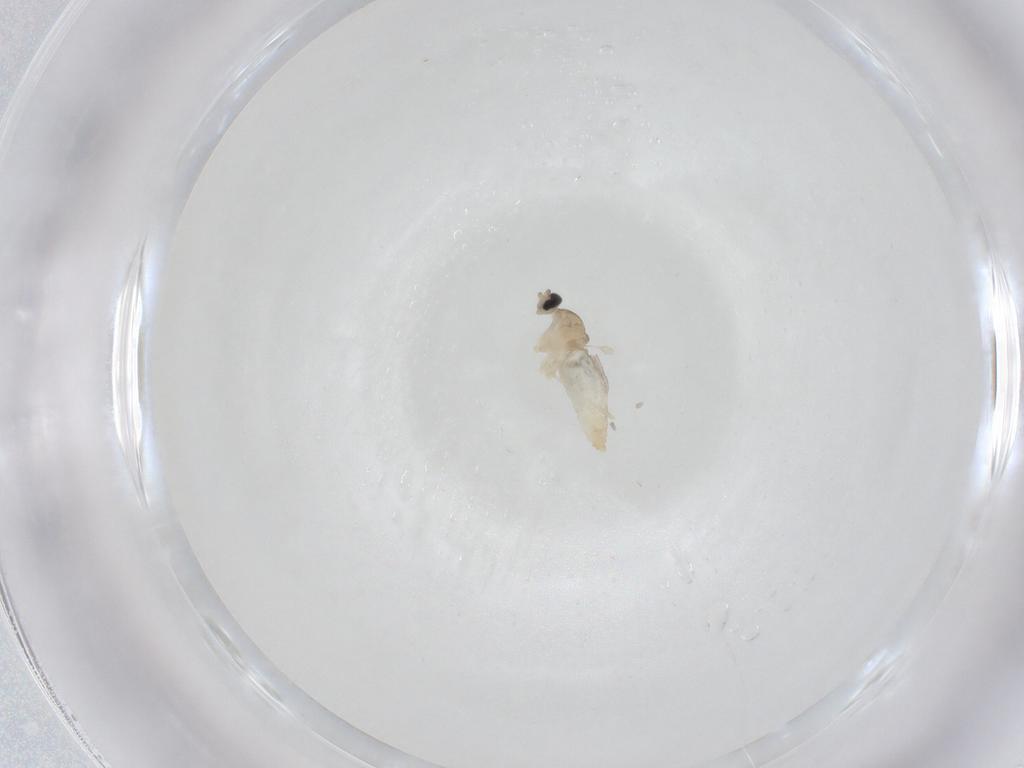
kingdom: Animalia
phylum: Arthropoda
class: Insecta
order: Diptera
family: Cecidomyiidae
